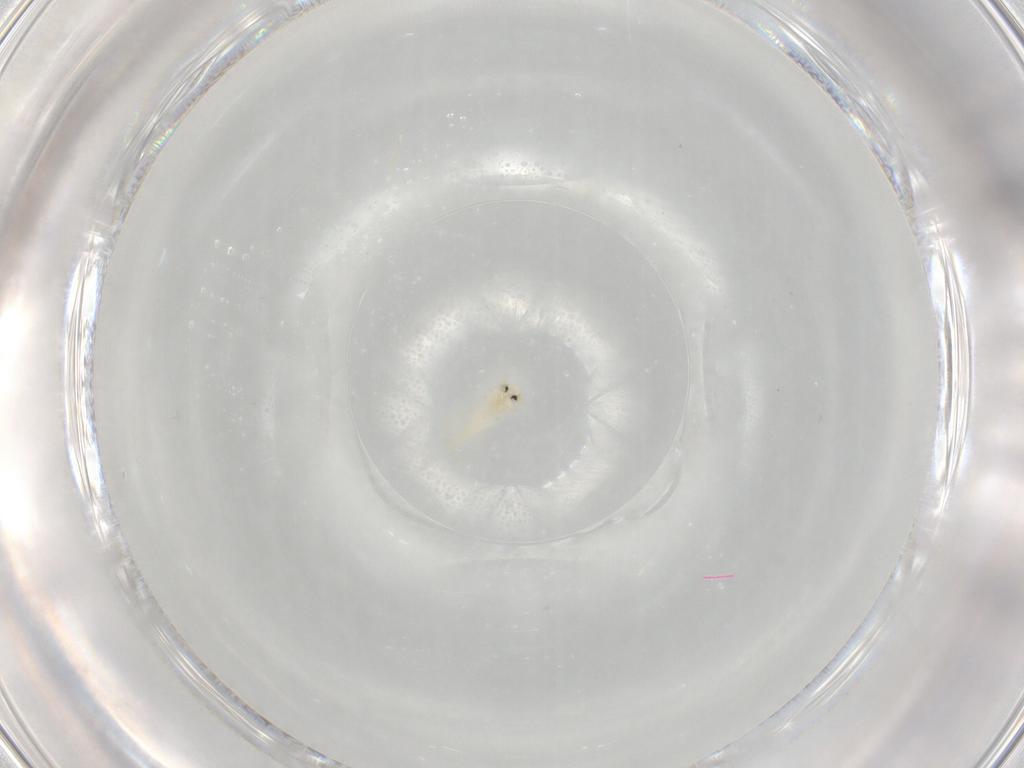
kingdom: Animalia
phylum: Arthropoda
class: Insecta
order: Hemiptera
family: Aleyrodidae
